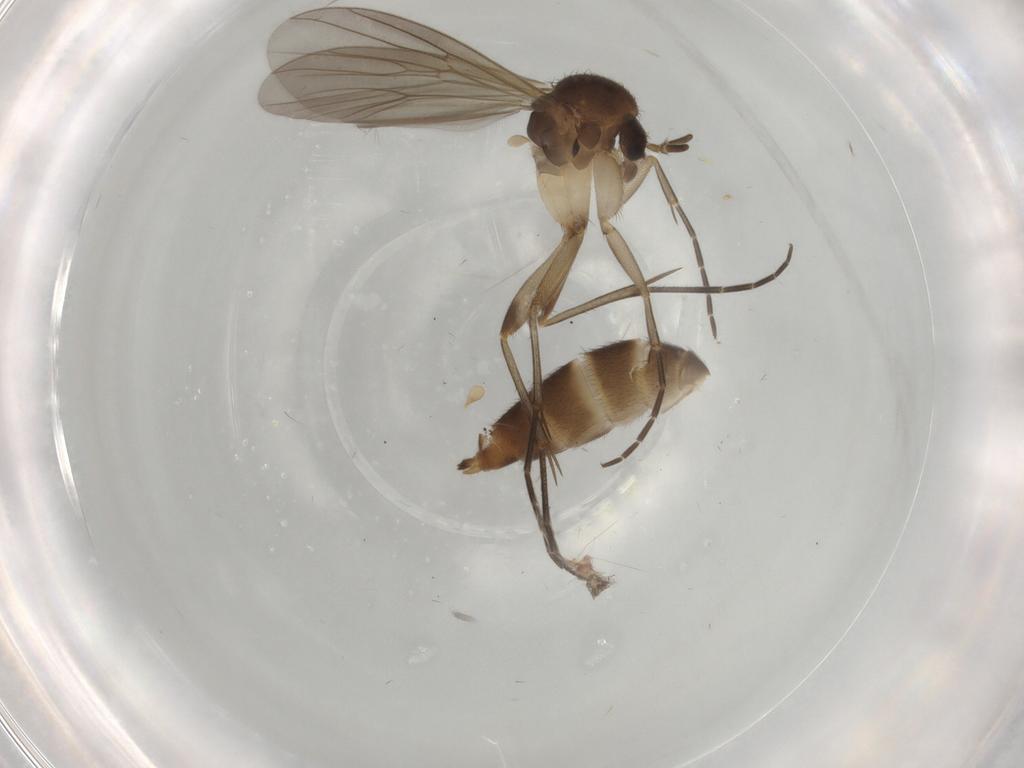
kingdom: Animalia
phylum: Arthropoda
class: Insecta
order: Diptera
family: Mycetophilidae
